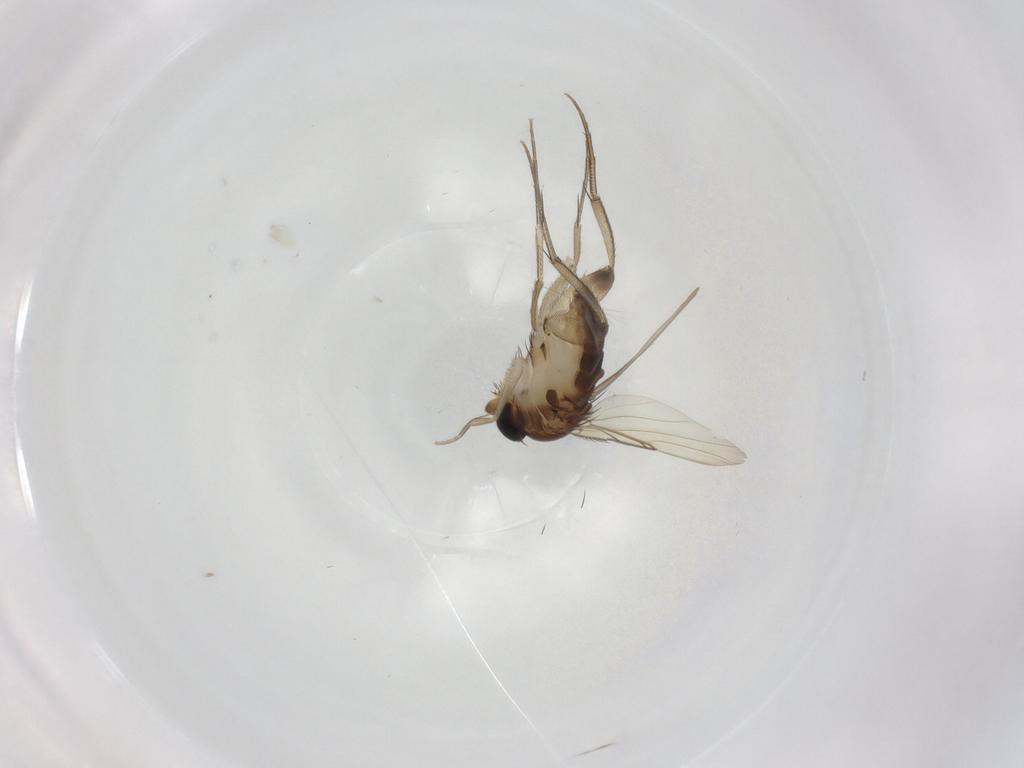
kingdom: Animalia
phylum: Arthropoda
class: Insecta
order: Diptera
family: Phoridae
